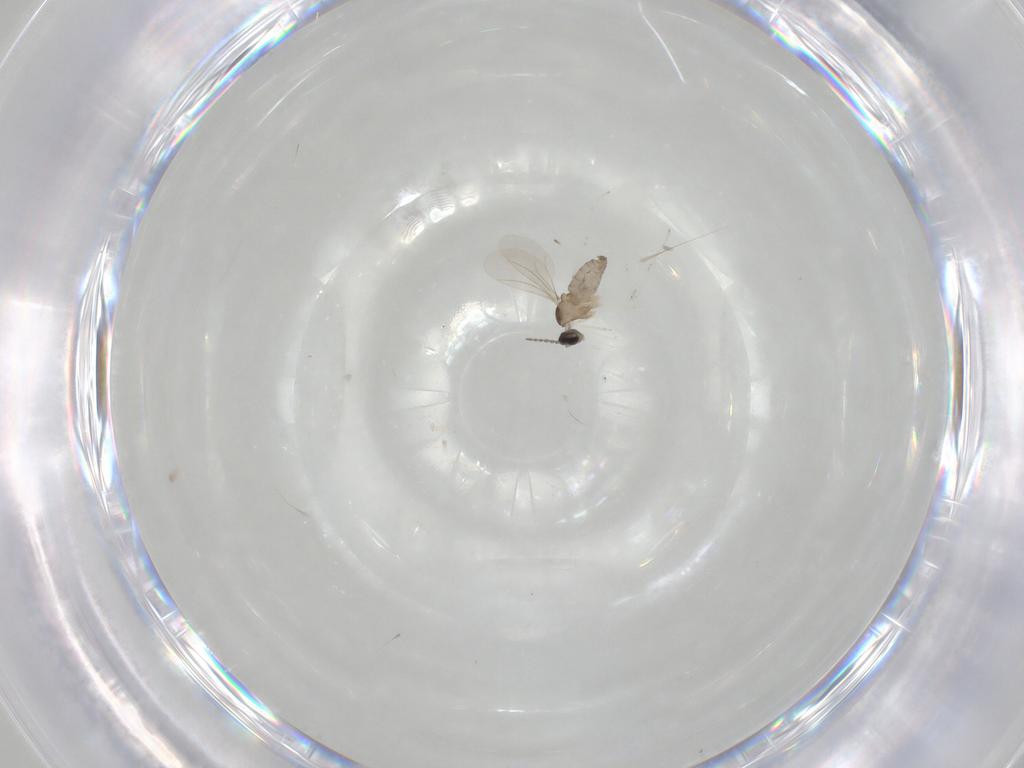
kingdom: Animalia
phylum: Arthropoda
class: Insecta
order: Diptera
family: Cecidomyiidae
